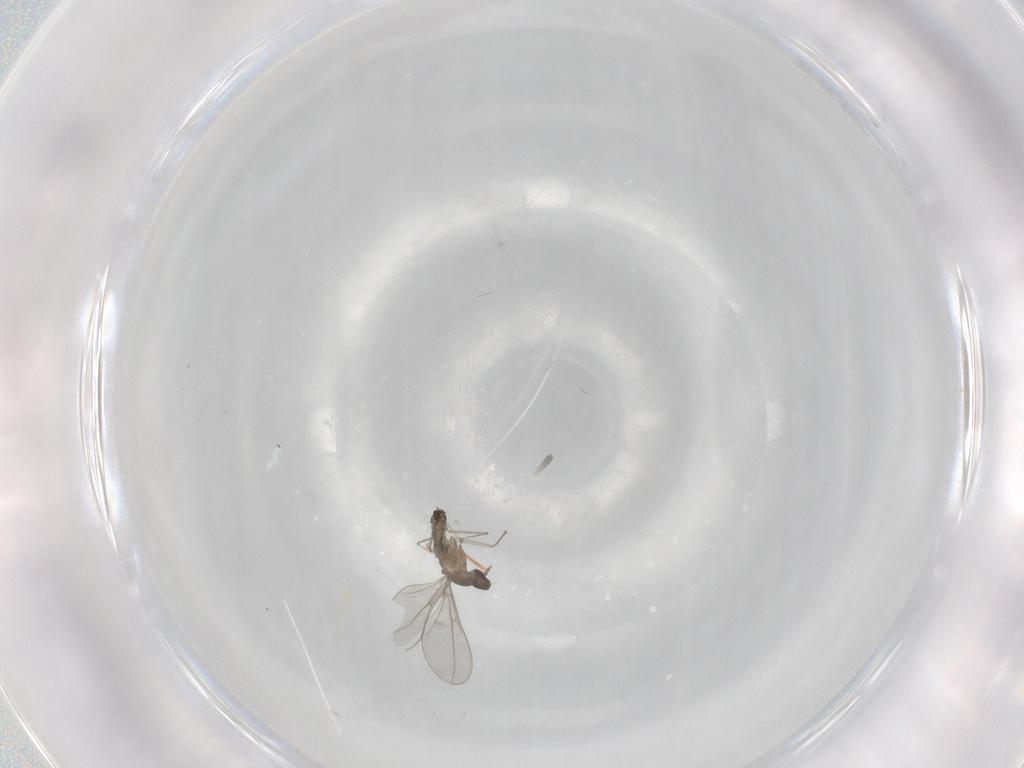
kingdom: Animalia
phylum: Arthropoda
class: Insecta
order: Diptera
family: Cecidomyiidae
